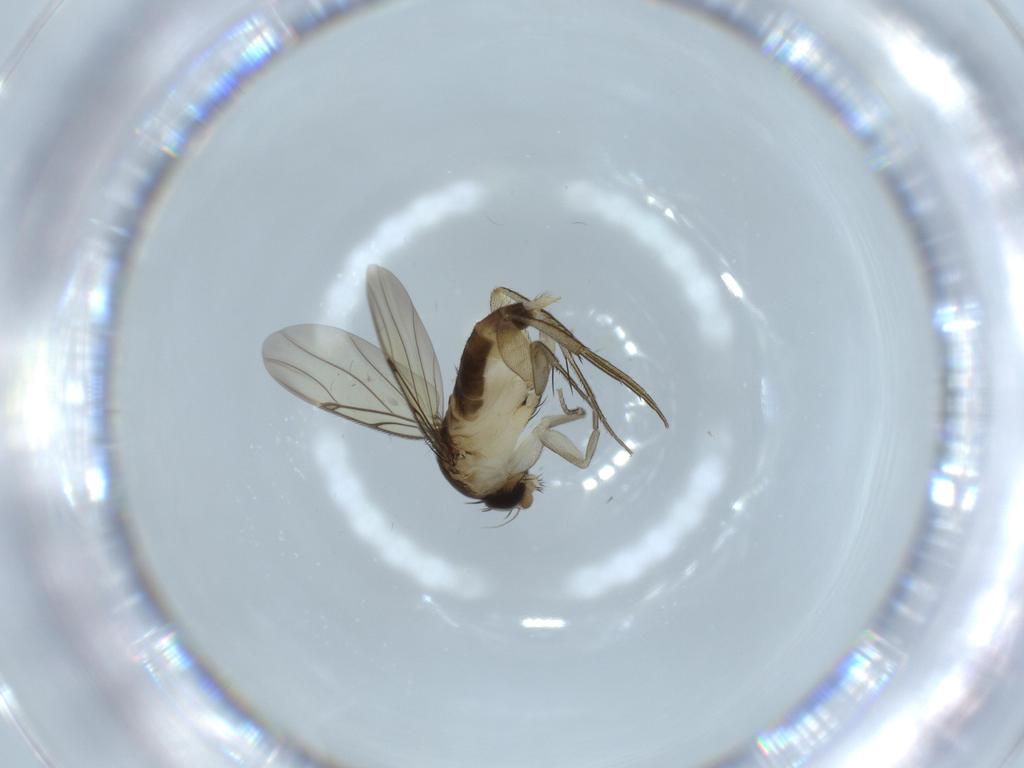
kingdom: Animalia
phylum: Arthropoda
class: Insecta
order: Diptera
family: Phoridae
